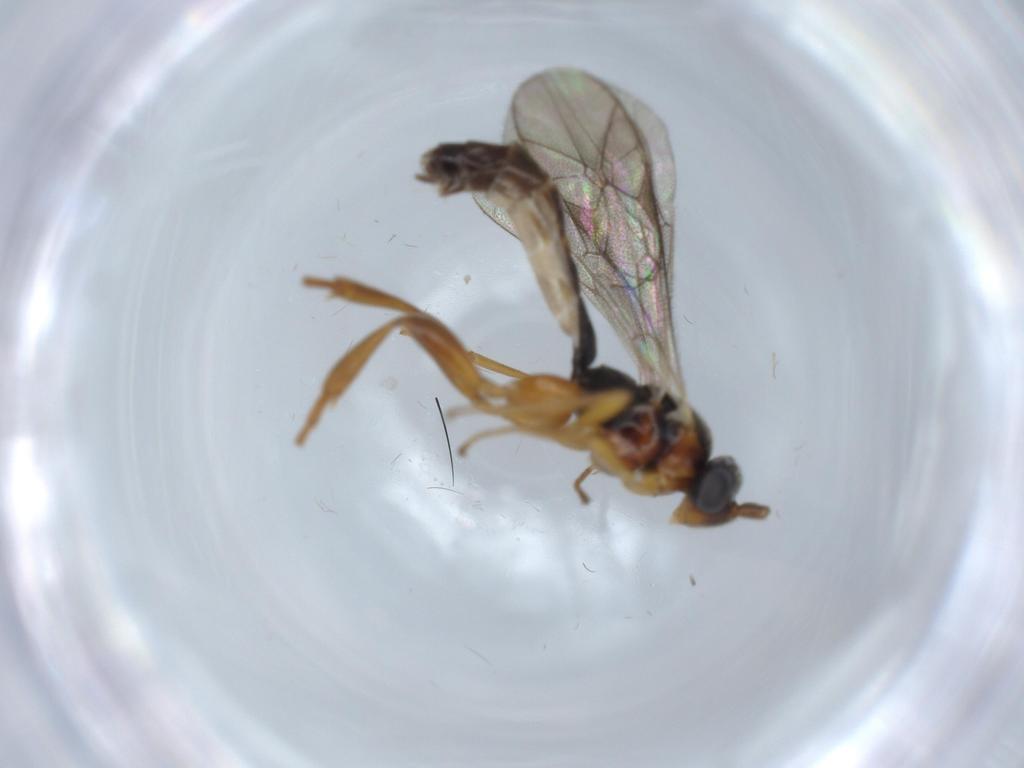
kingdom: Animalia
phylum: Arthropoda
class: Insecta
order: Hymenoptera
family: Ichneumonidae
